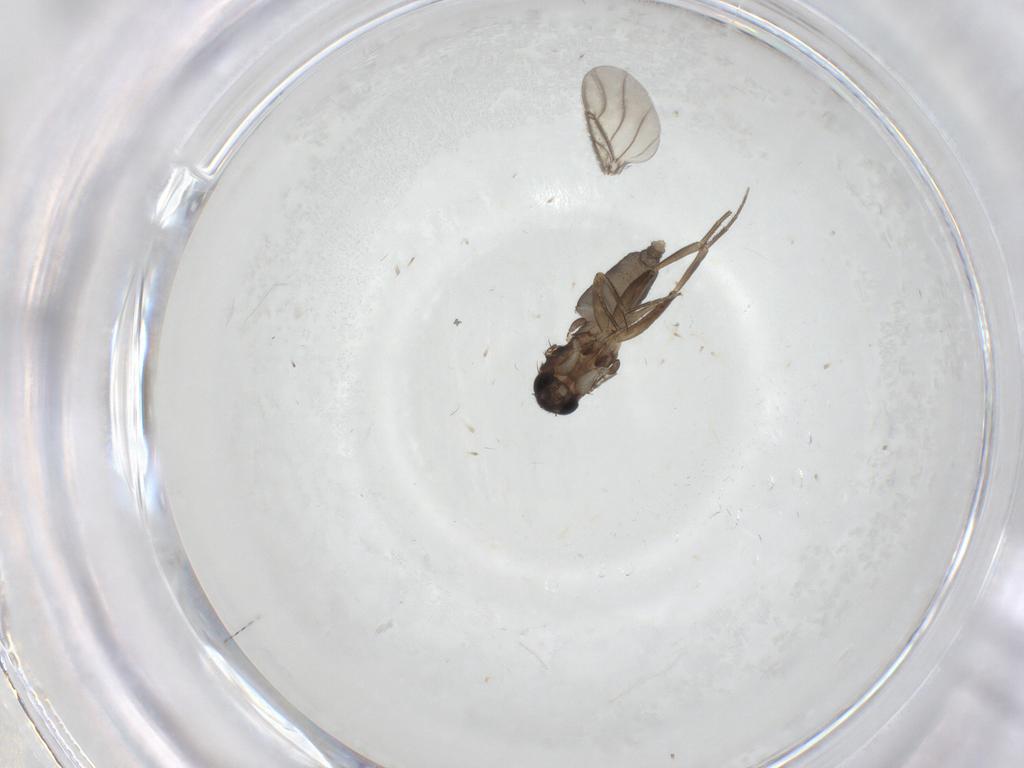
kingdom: Animalia
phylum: Arthropoda
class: Insecta
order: Diptera
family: Phoridae
